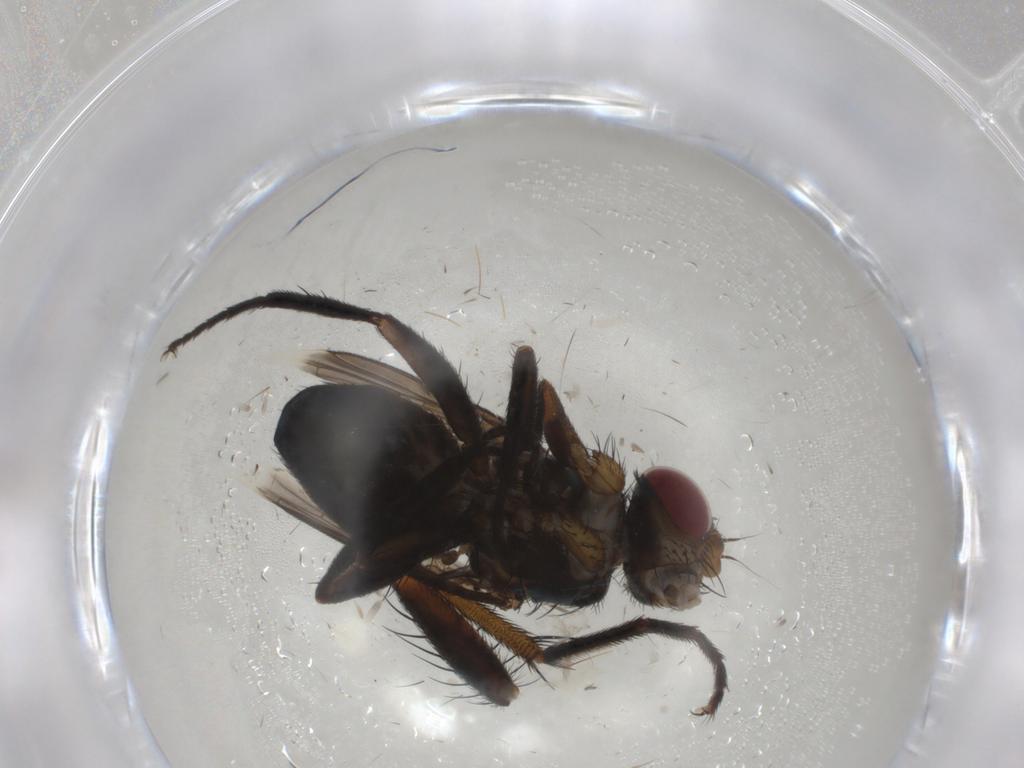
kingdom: Animalia
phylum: Arthropoda
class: Insecta
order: Diptera
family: Tachinidae
